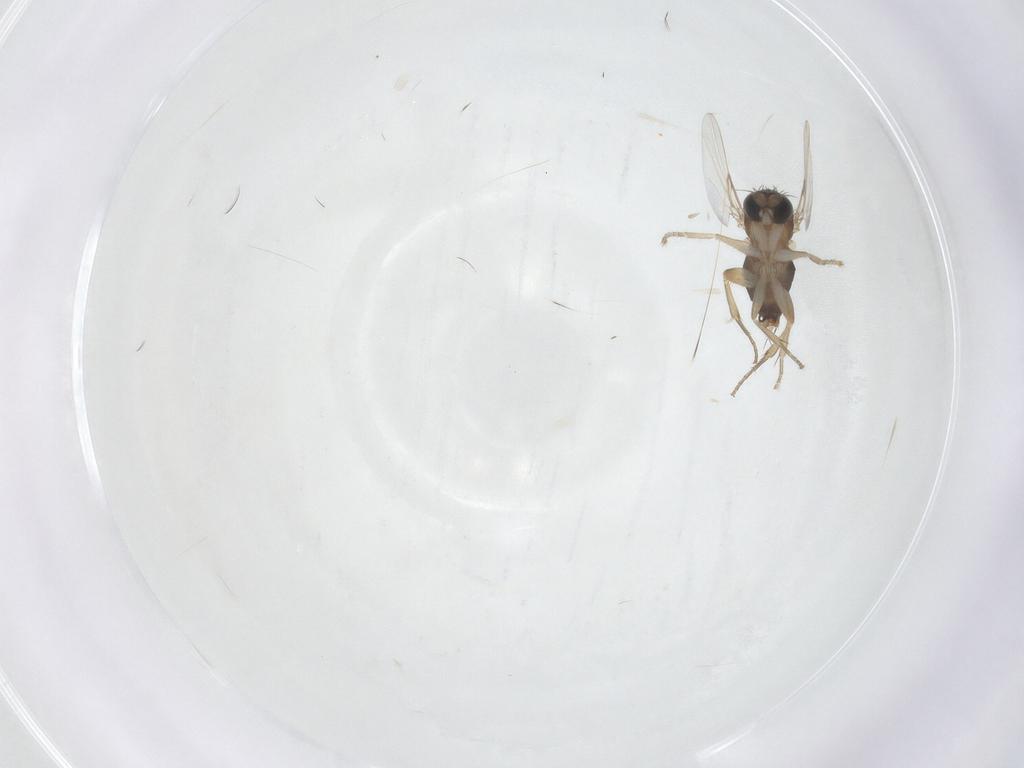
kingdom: Animalia
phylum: Arthropoda
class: Insecta
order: Diptera
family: Phoridae
